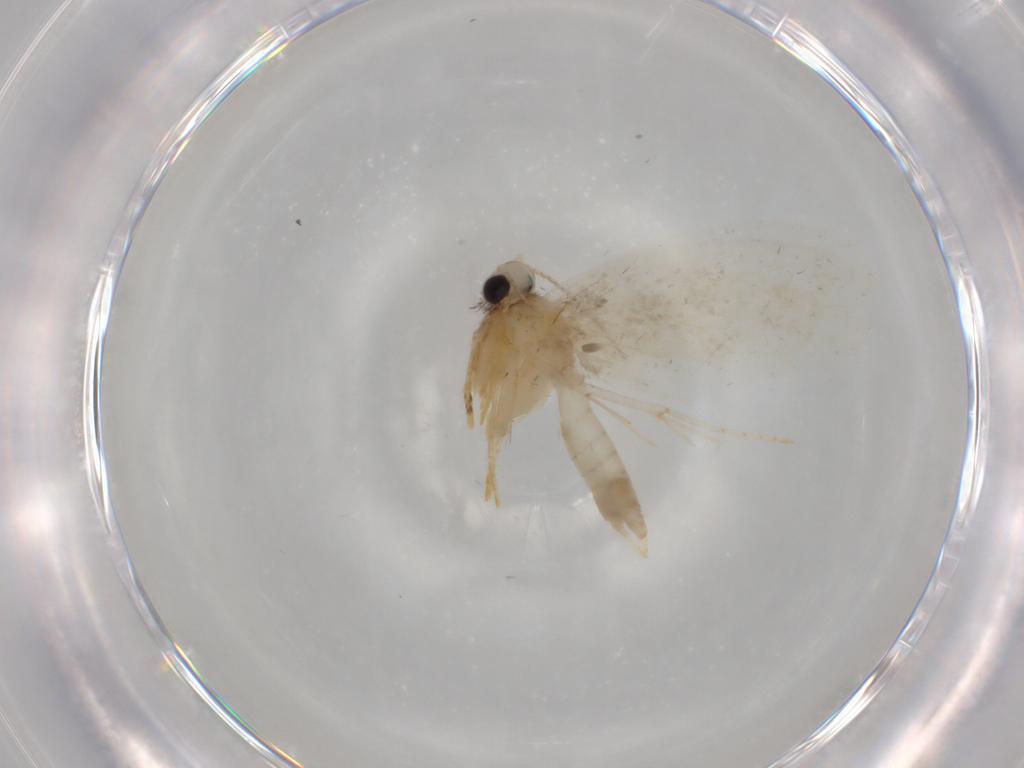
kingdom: Animalia
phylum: Arthropoda
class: Insecta
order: Lepidoptera
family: Psychidae
